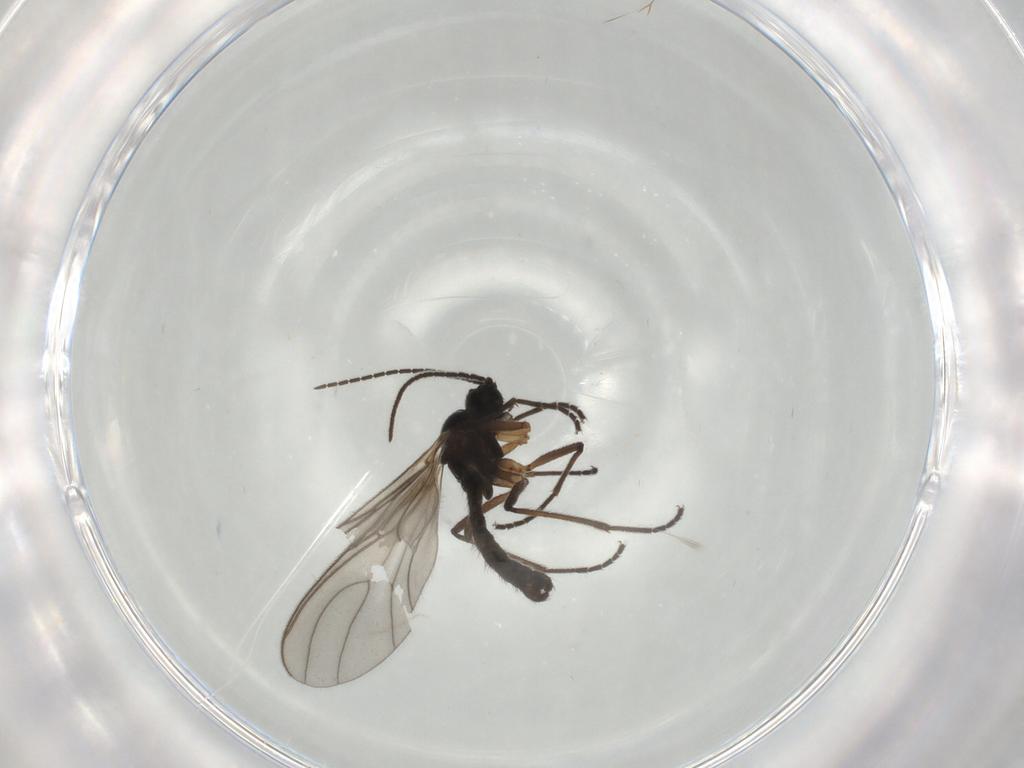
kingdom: Animalia
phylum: Arthropoda
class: Insecta
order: Diptera
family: Sciaridae
